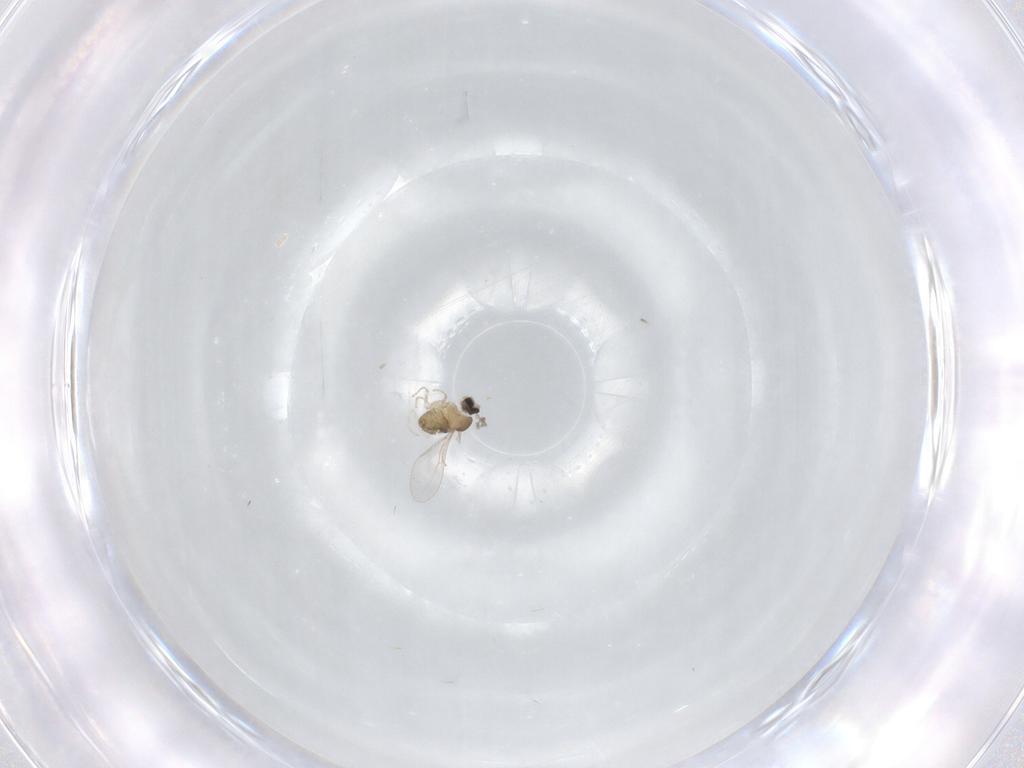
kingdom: Animalia
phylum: Arthropoda
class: Insecta
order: Diptera
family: Cecidomyiidae
